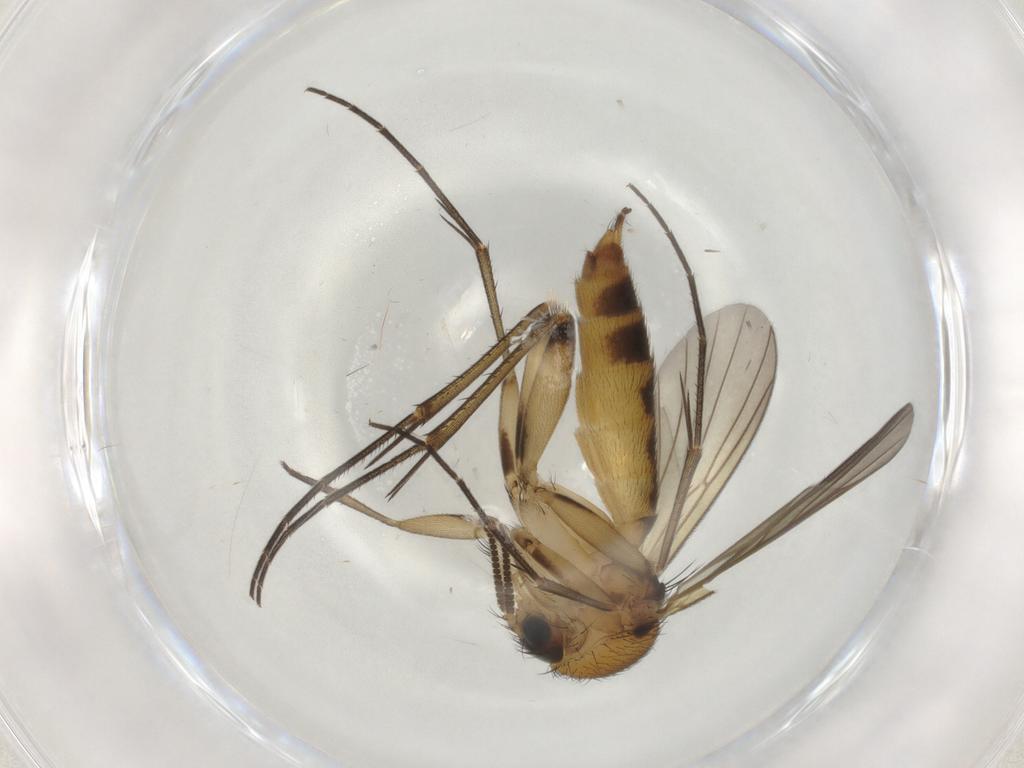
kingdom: Animalia
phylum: Arthropoda
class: Insecta
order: Diptera
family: Mycetophilidae
